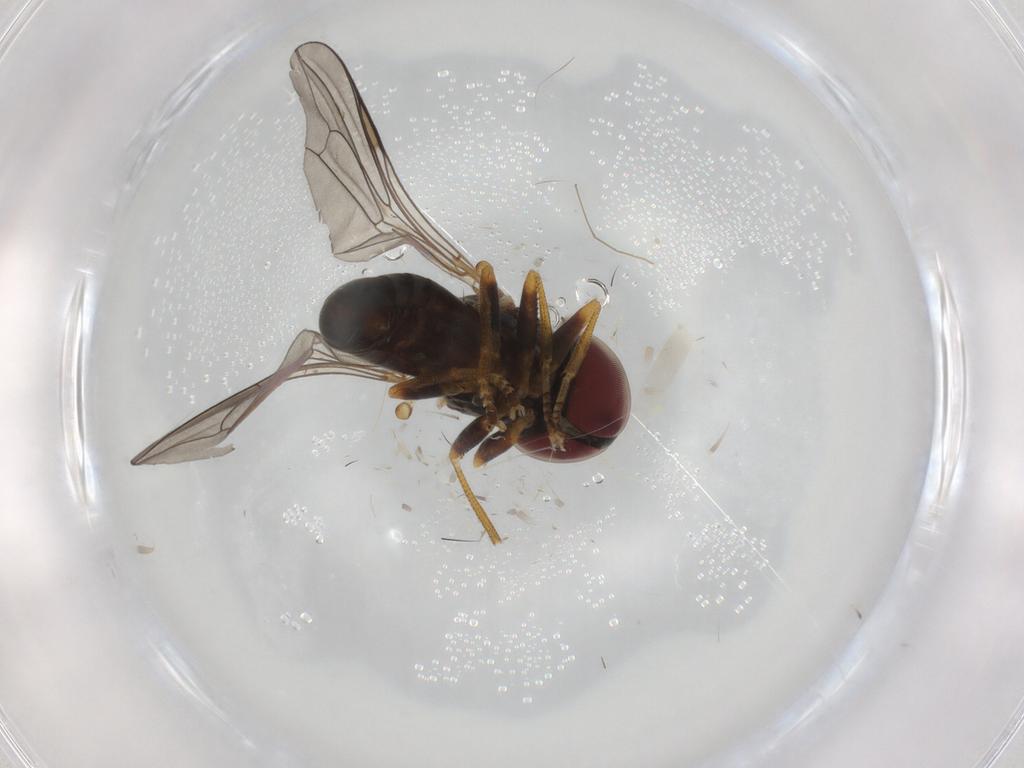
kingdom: Animalia
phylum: Arthropoda
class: Insecta
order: Diptera
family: Pipunculidae
